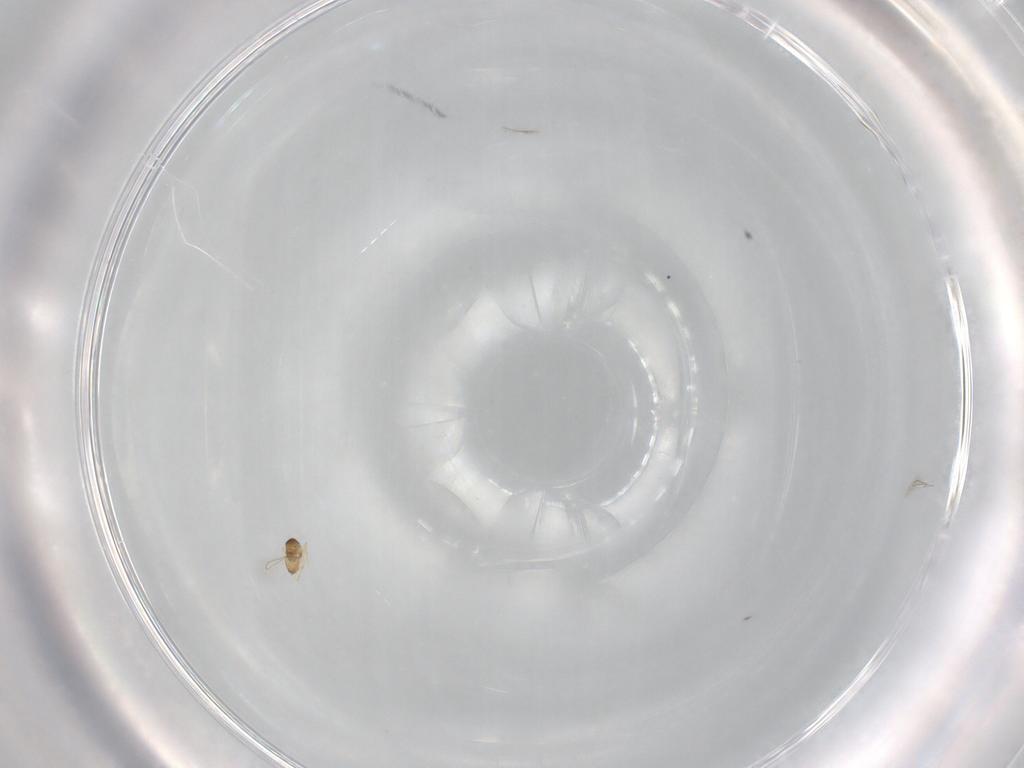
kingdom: Animalia
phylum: Arthropoda
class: Insecta
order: Hymenoptera
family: Mymaridae
